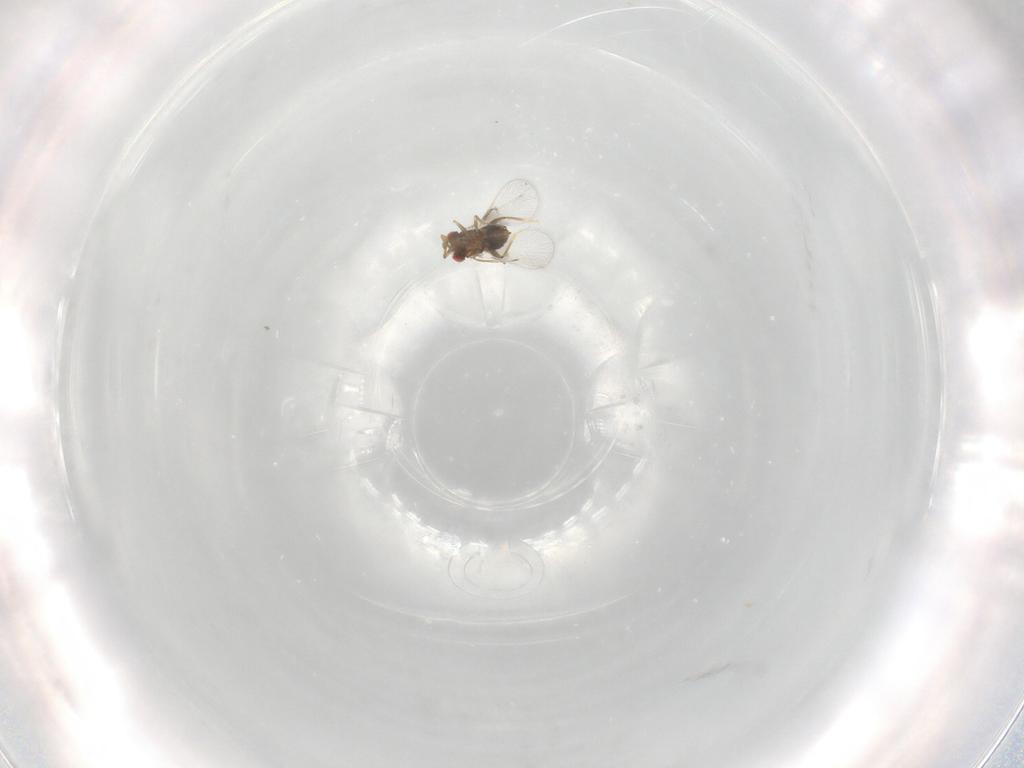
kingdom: Animalia
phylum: Arthropoda
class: Insecta
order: Hymenoptera
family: Trichogrammatidae
